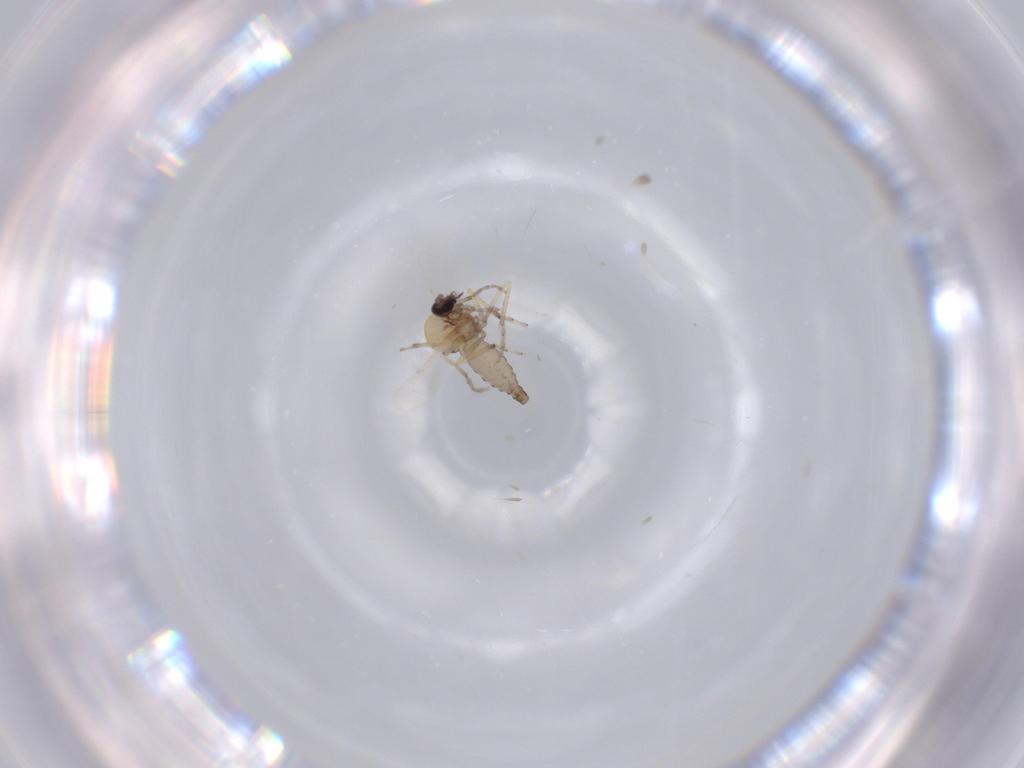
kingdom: Animalia
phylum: Arthropoda
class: Insecta
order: Diptera
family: Ceratopogonidae
